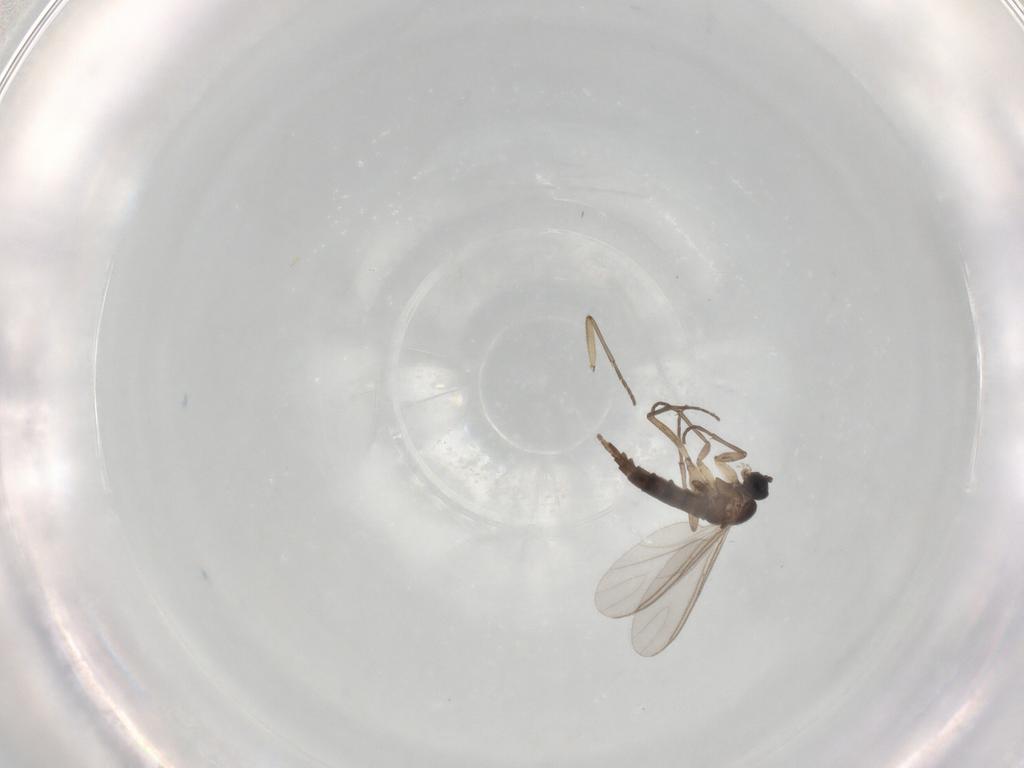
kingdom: Animalia
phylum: Arthropoda
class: Insecta
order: Diptera
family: Sciaridae
